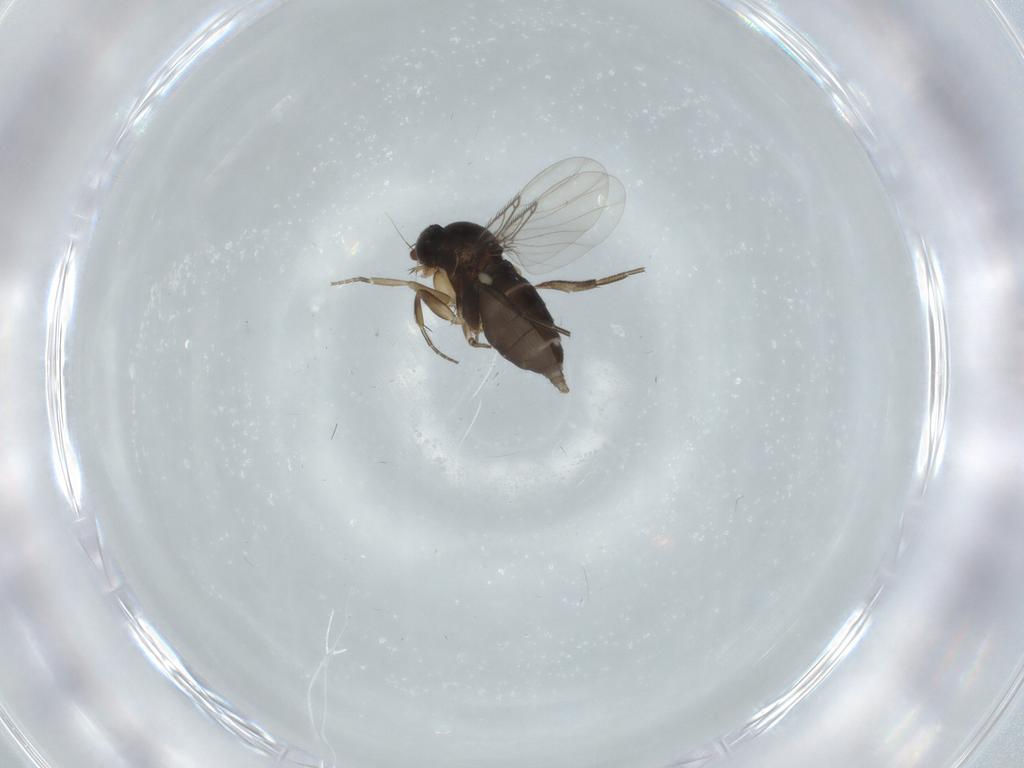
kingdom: Animalia
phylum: Arthropoda
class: Insecta
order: Diptera
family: Phoridae
